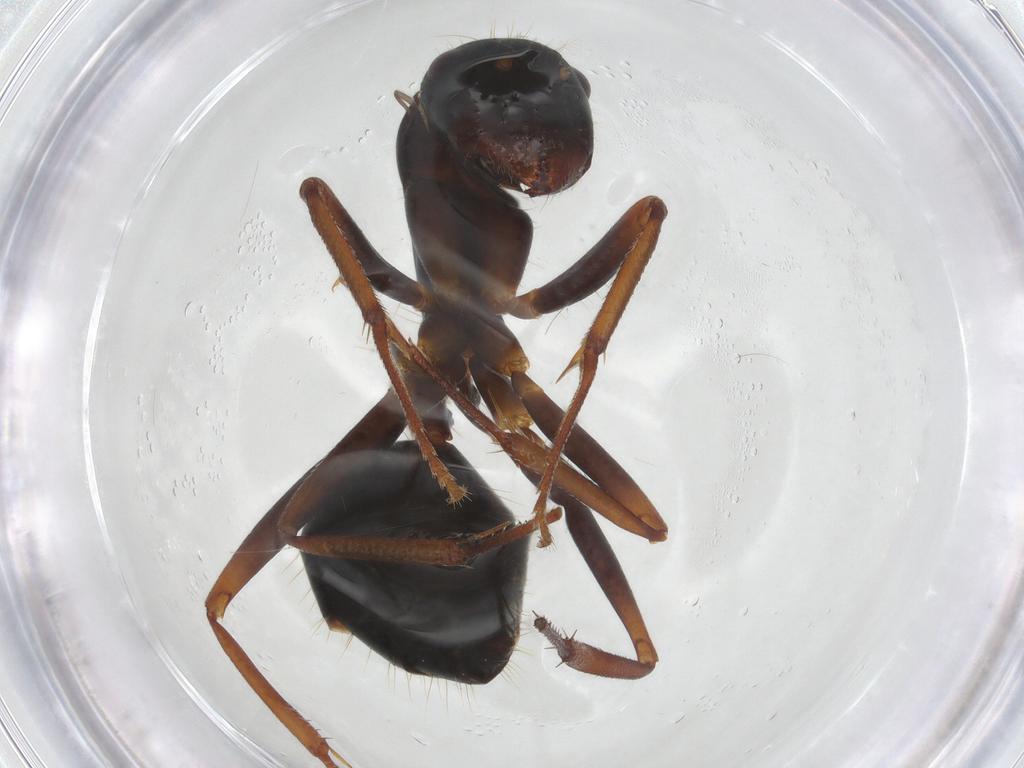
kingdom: Animalia
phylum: Arthropoda
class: Insecta
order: Hymenoptera
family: Formicidae
